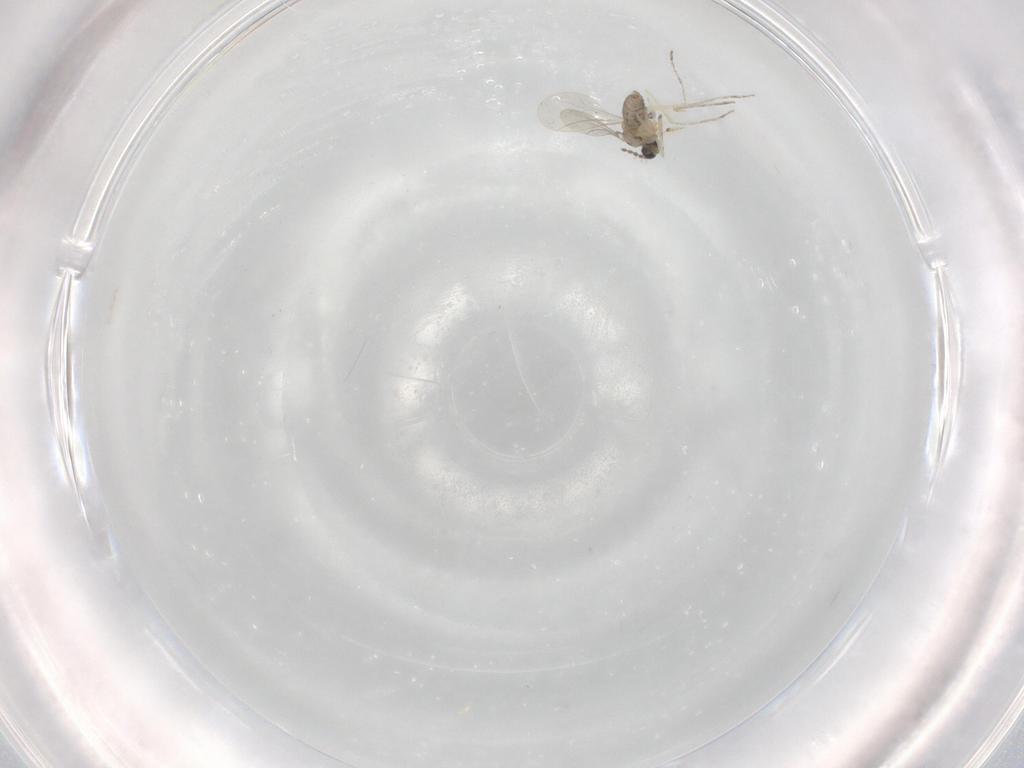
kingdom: Animalia
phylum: Arthropoda
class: Insecta
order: Diptera
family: Cecidomyiidae
